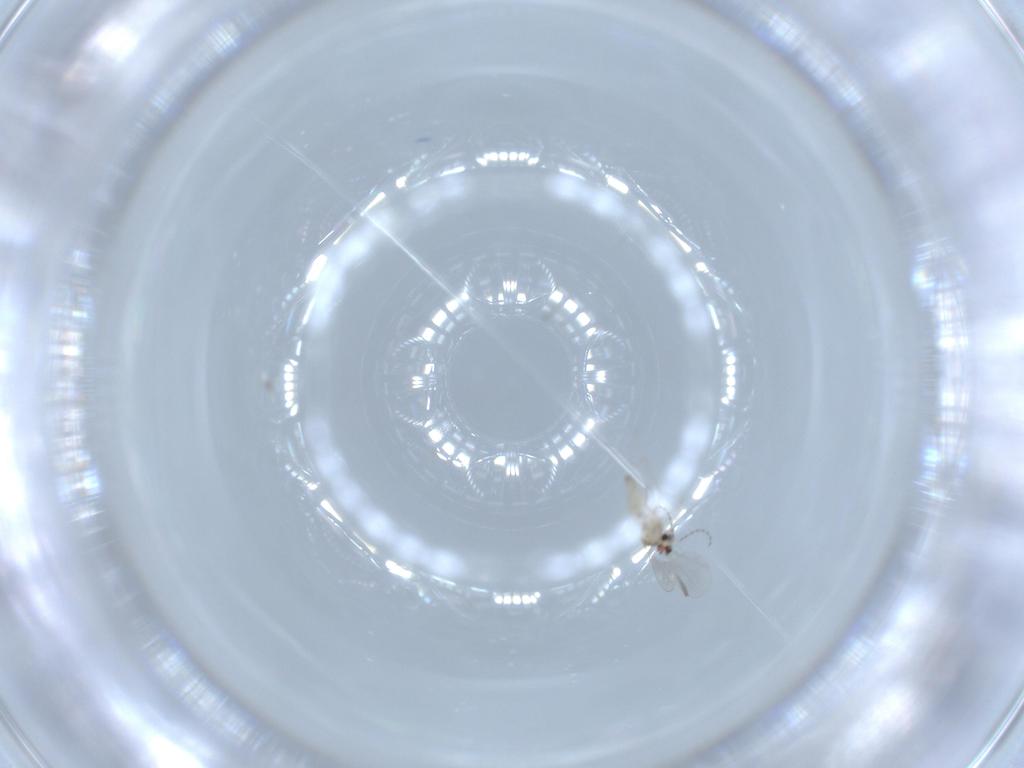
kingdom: Animalia
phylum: Arthropoda
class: Insecta
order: Diptera
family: Cecidomyiidae
